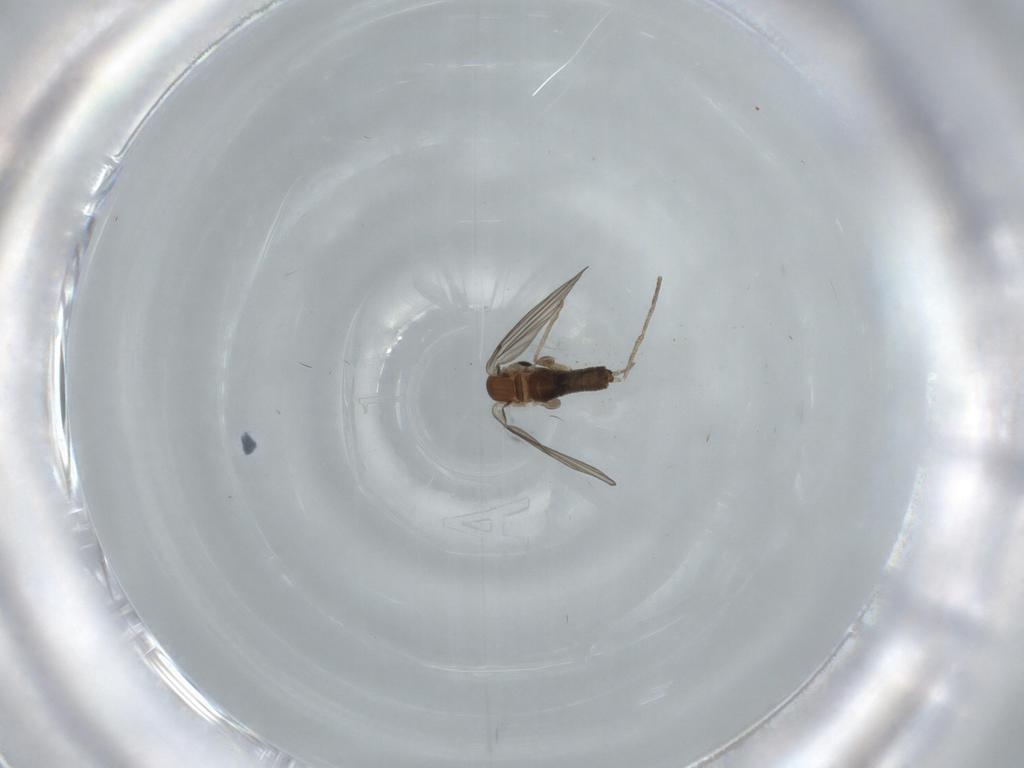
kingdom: Animalia
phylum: Arthropoda
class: Insecta
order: Diptera
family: Psychodidae
